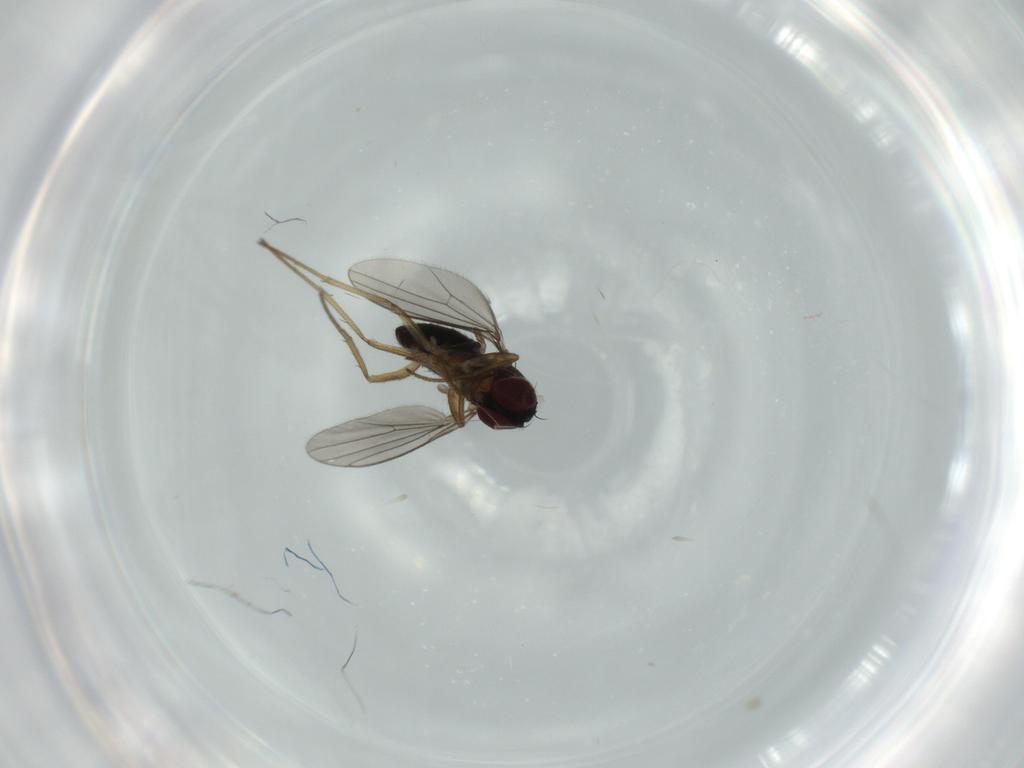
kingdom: Animalia
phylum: Arthropoda
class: Insecta
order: Diptera
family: Dolichopodidae
